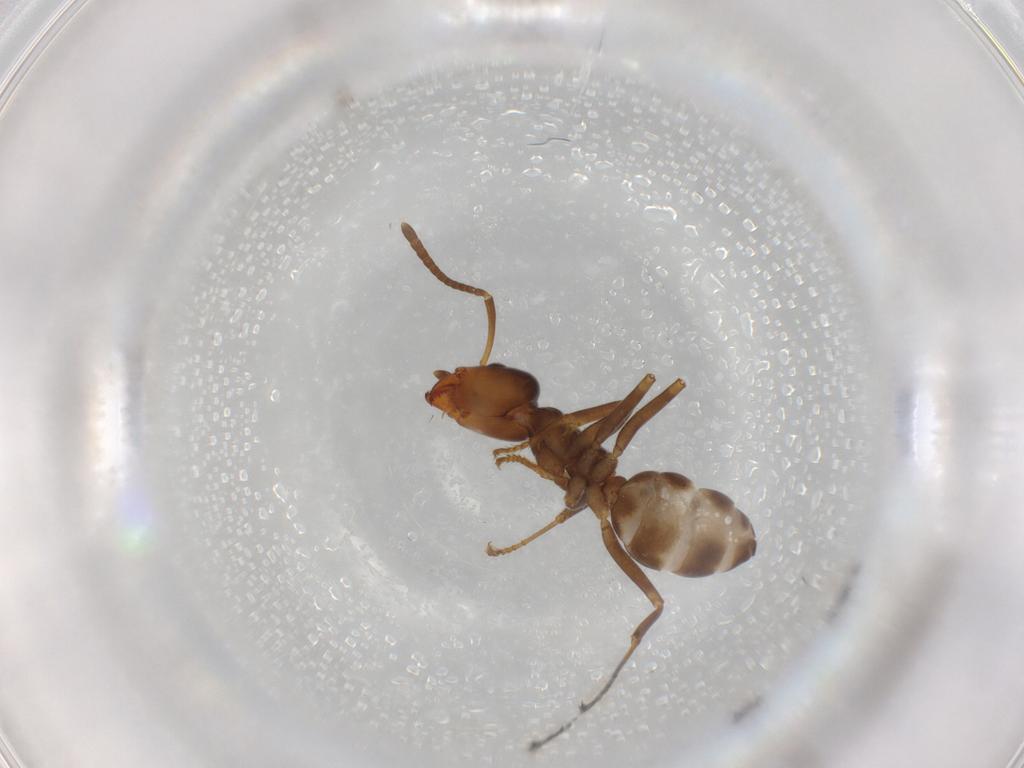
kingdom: Animalia
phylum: Arthropoda
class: Insecta
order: Hymenoptera
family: Formicidae
